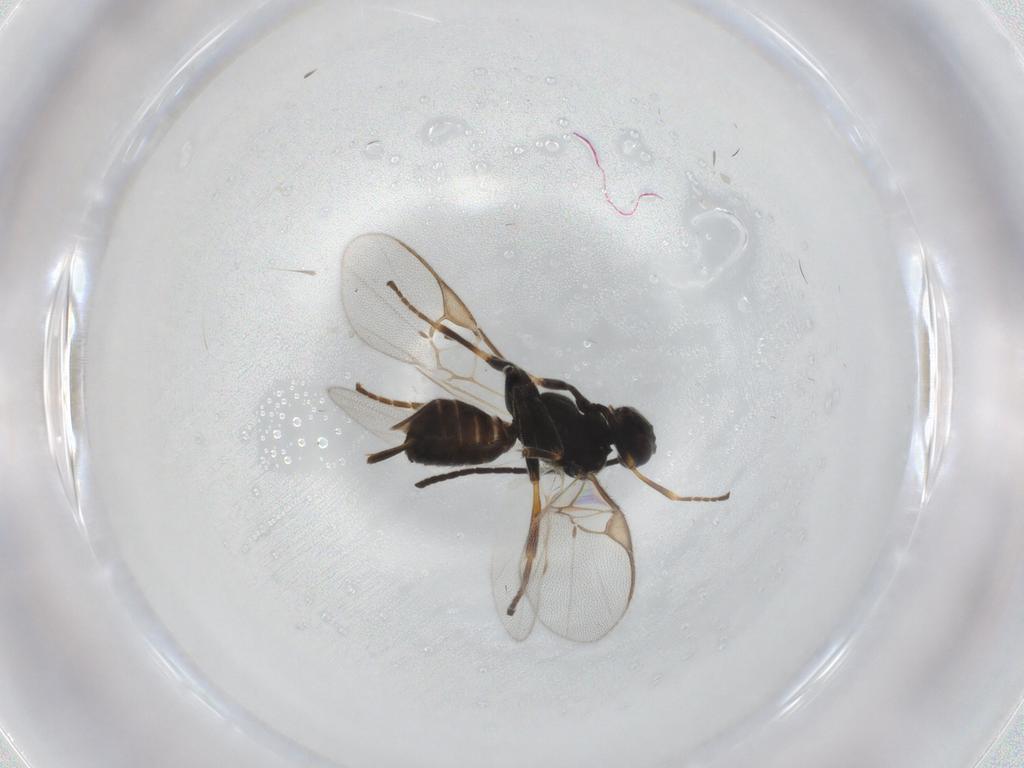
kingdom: Animalia
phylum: Arthropoda
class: Insecta
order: Hymenoptera
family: Braconidae
